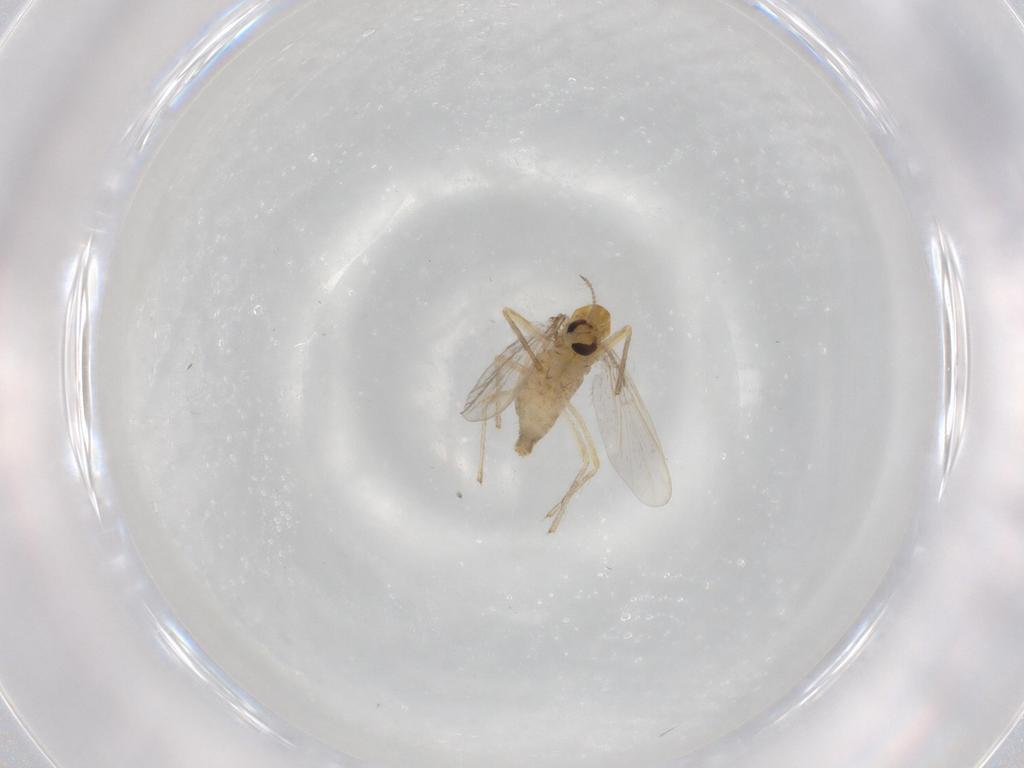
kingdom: Animalia
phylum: Arthropoda
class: Insecta
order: Diptera
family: Chironomidae
